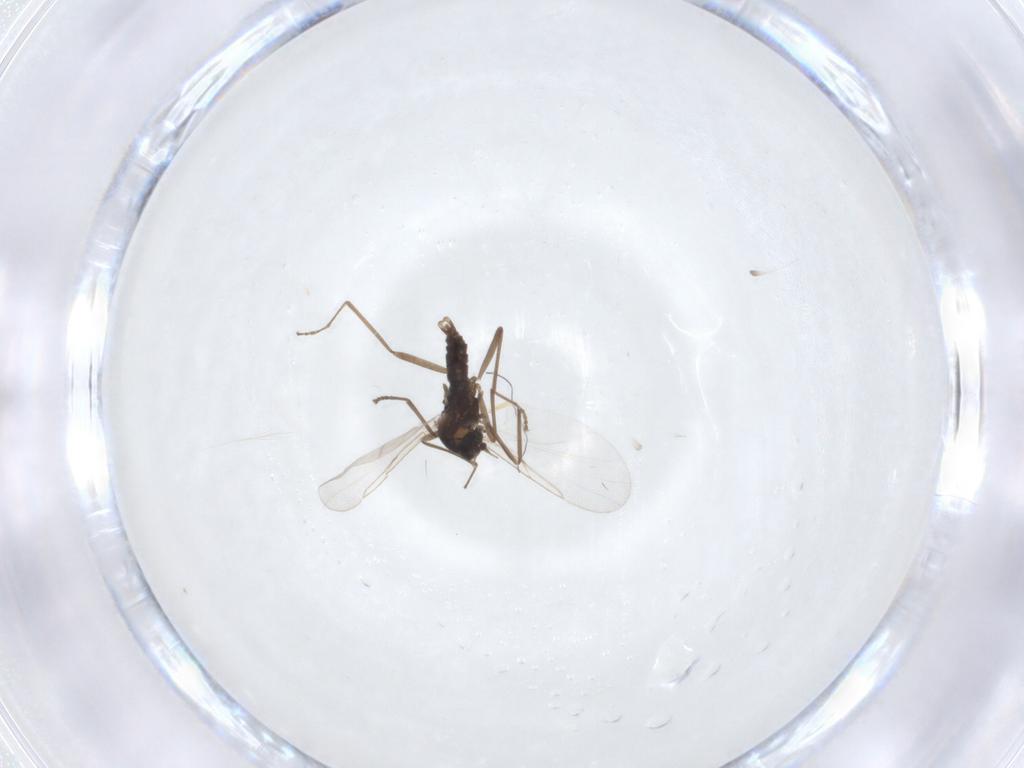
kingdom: Animalia
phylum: Arthropoda
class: Insecta
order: Diptera
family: Cecidomyiidae
